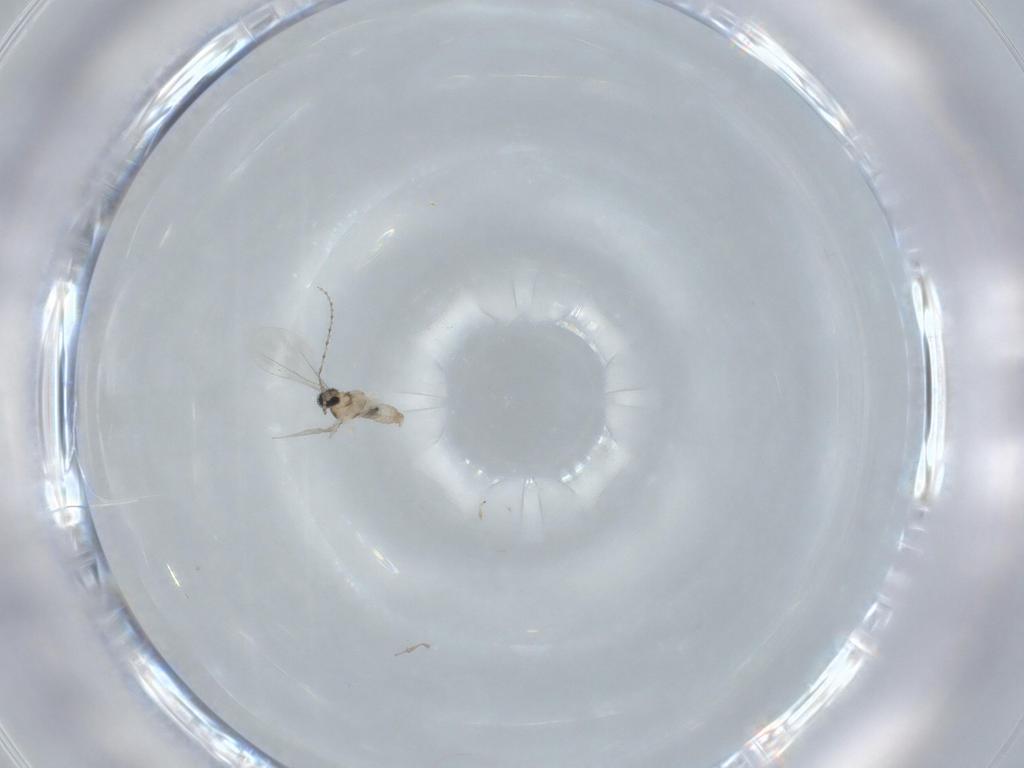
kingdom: Animalia
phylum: Arthropoda
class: Insecta
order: Diptera
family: Cecidomyiidae
